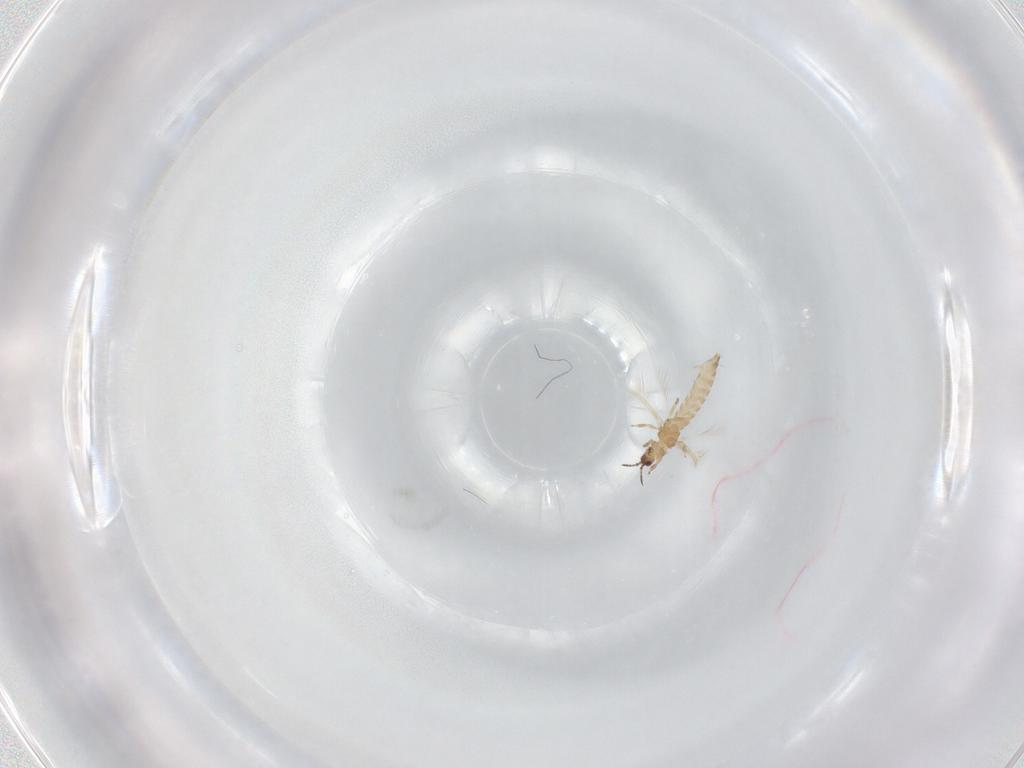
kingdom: Animalia
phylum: Arthropoda
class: Insecta
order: Thysanoptera
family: Thripidae
